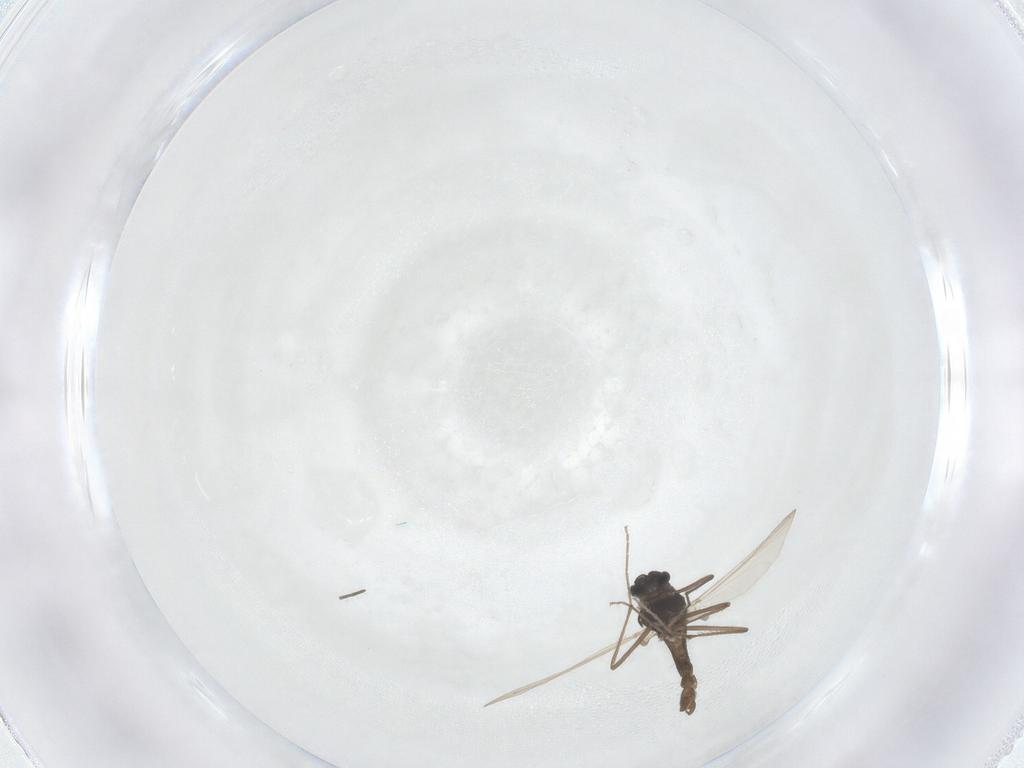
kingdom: Animalia
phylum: Arthropoda
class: Insecta
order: Diptera
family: Chironomidae
